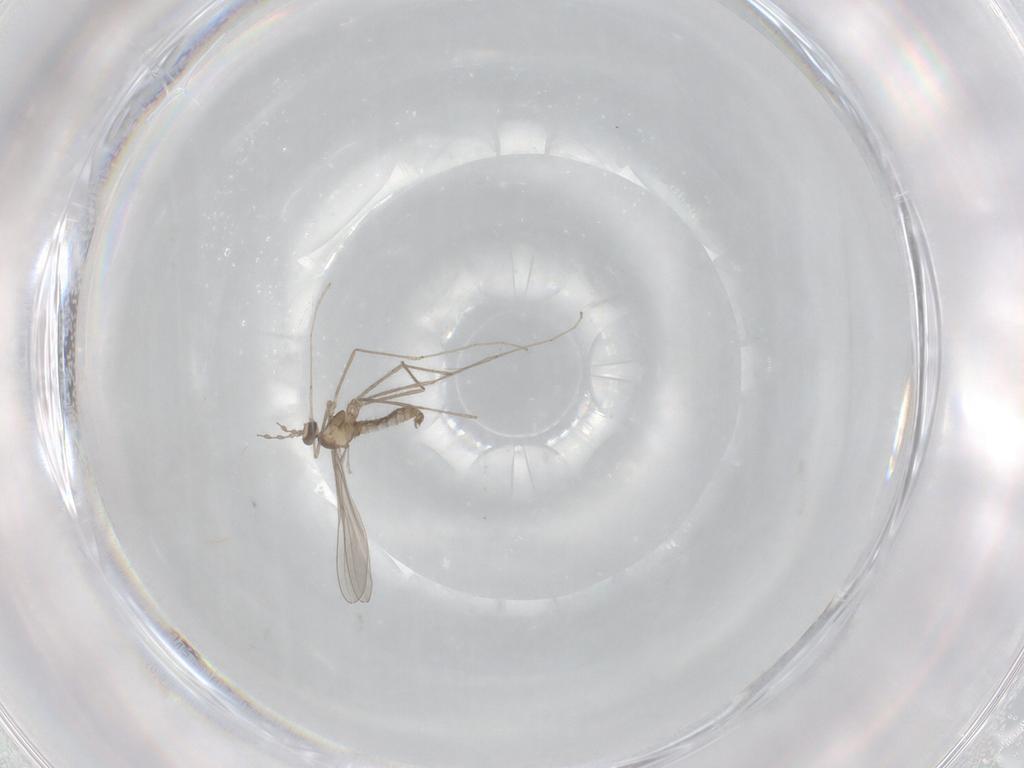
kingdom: Animalia
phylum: Arthropoda
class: Insecta
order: Diptera
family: Cecidomyiidae
